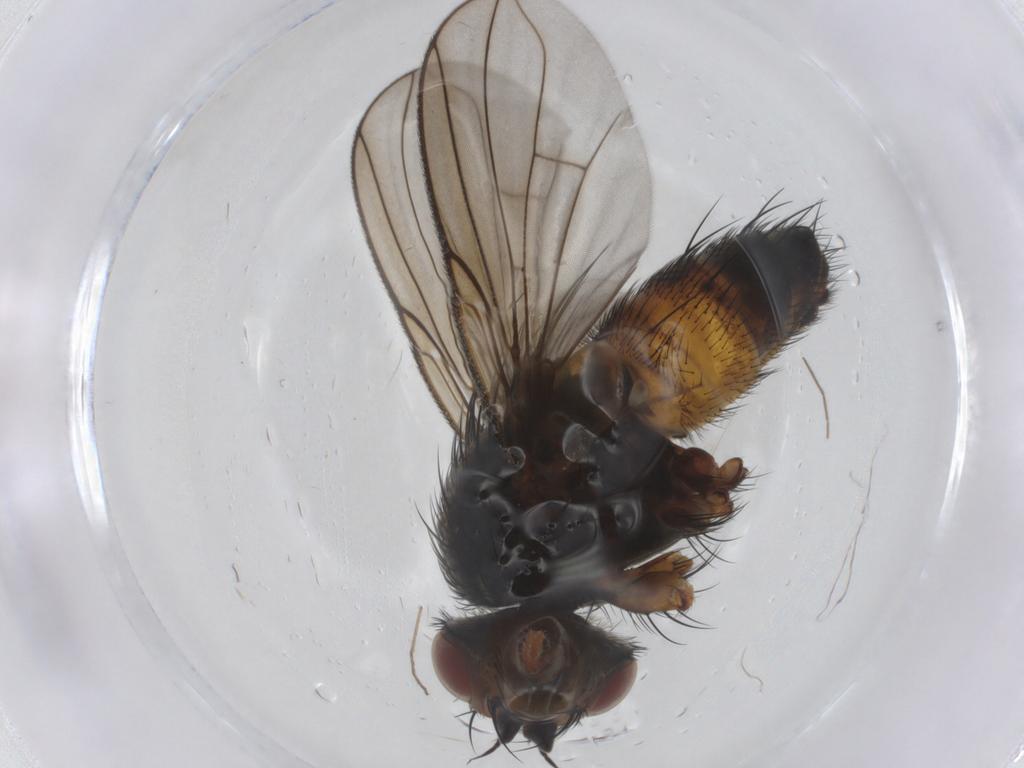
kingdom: Animalia
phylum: Arthropoda
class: Insecta
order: Diptera
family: Tachinidae
